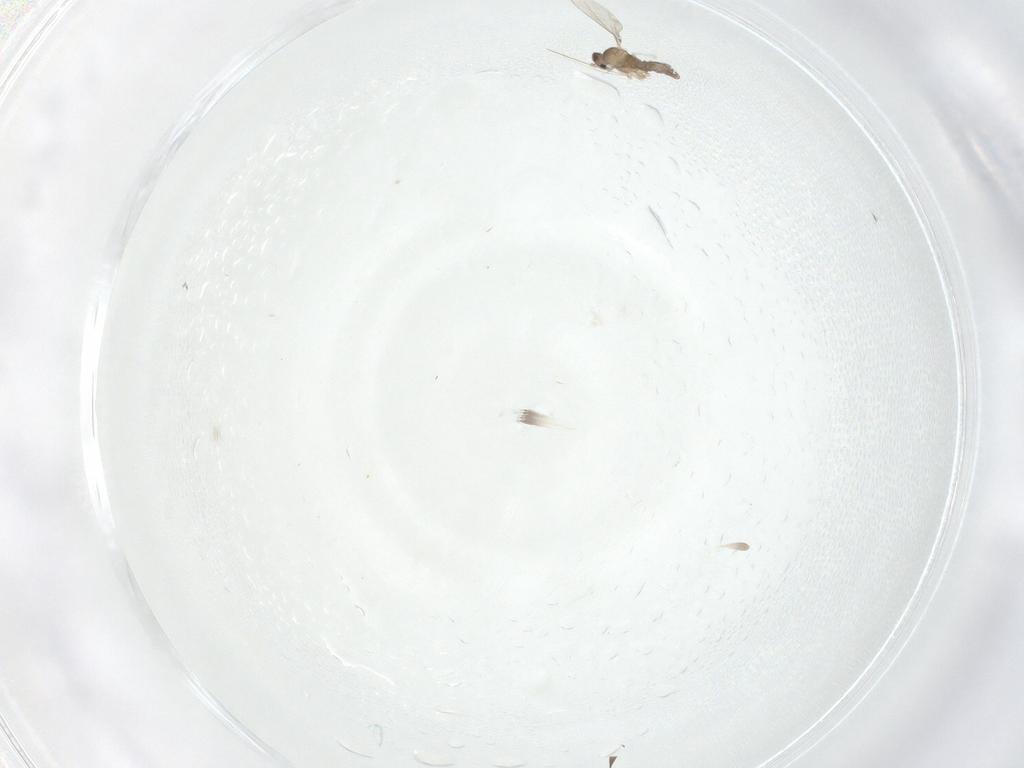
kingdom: Animalia
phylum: Arthropoda
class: Insecta
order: Diptera
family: Cecidomyiidae
